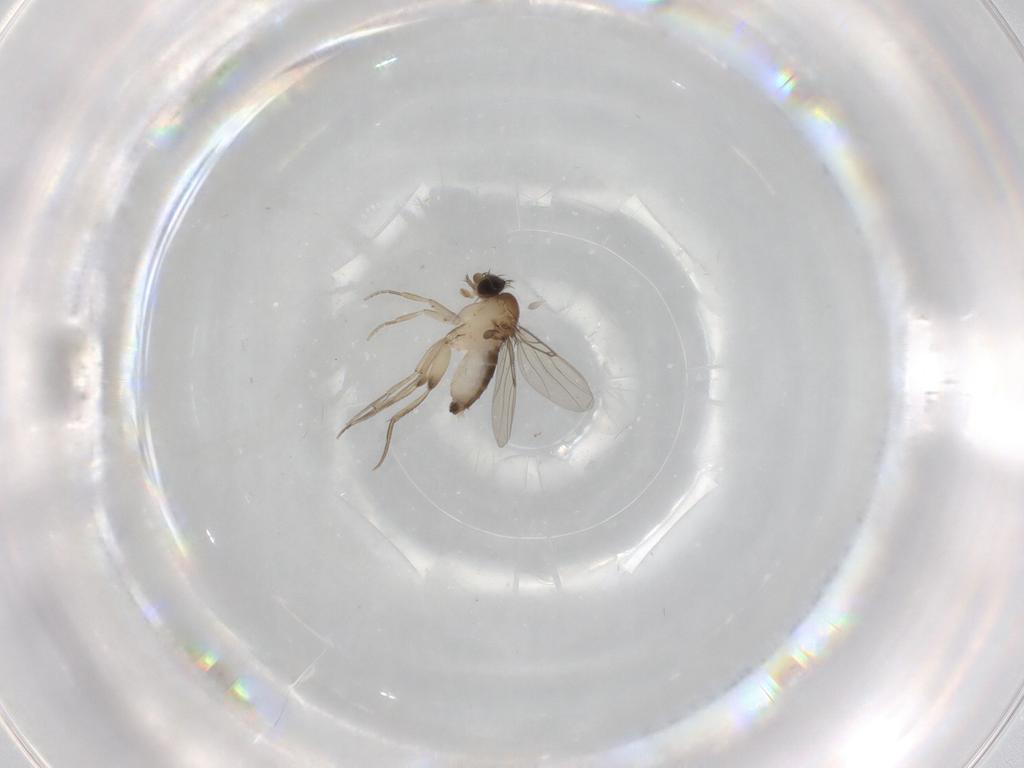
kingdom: Animalia
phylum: Arthropoda
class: Insecta
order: Diptera
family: Phoridae
